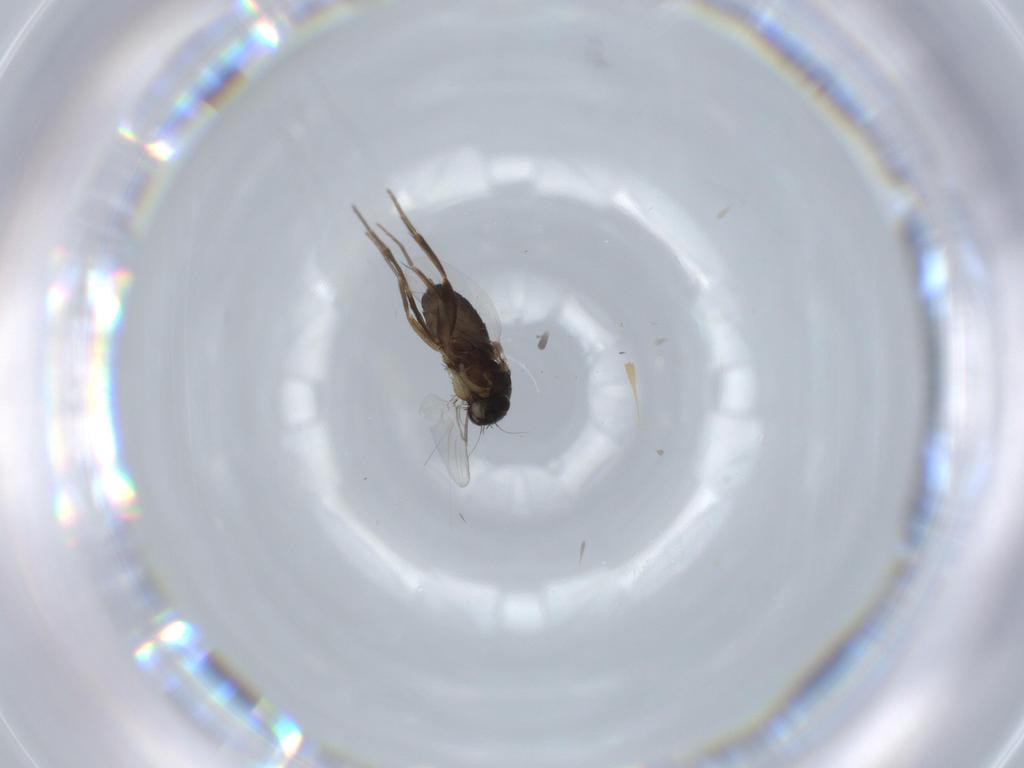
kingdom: Animalia
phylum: Arthropoda
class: Insecta
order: Diptera
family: Phoridae
